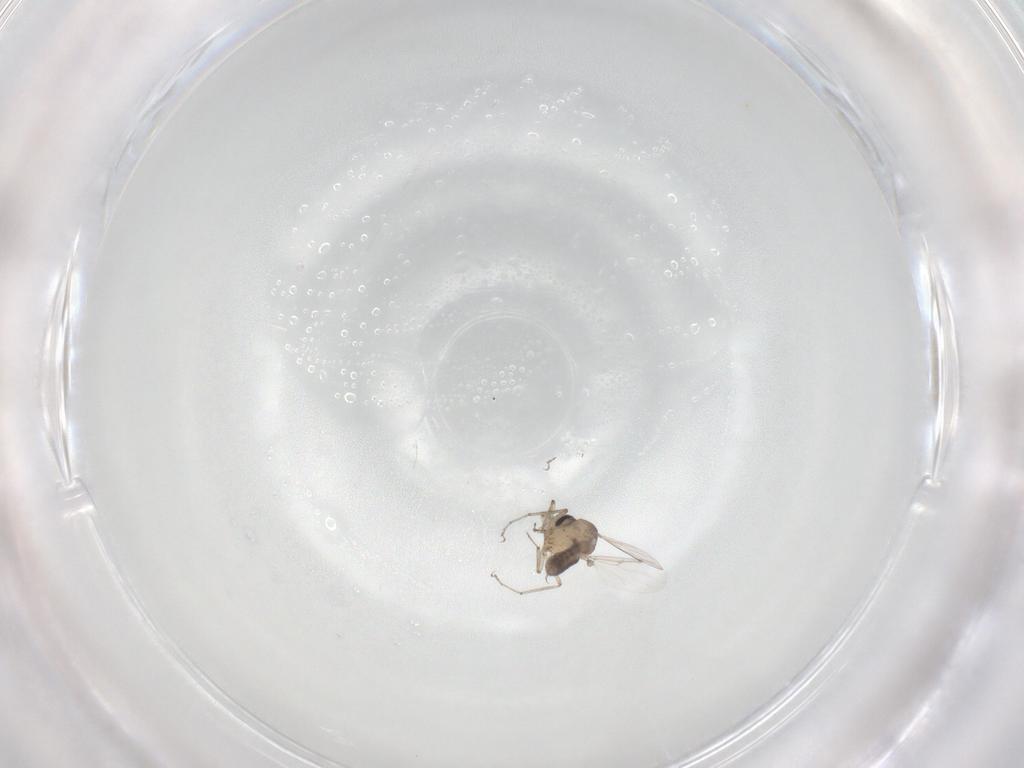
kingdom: Animalia
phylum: Arthropoda
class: Insecta
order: Diptera
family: Ceratopogonidae
